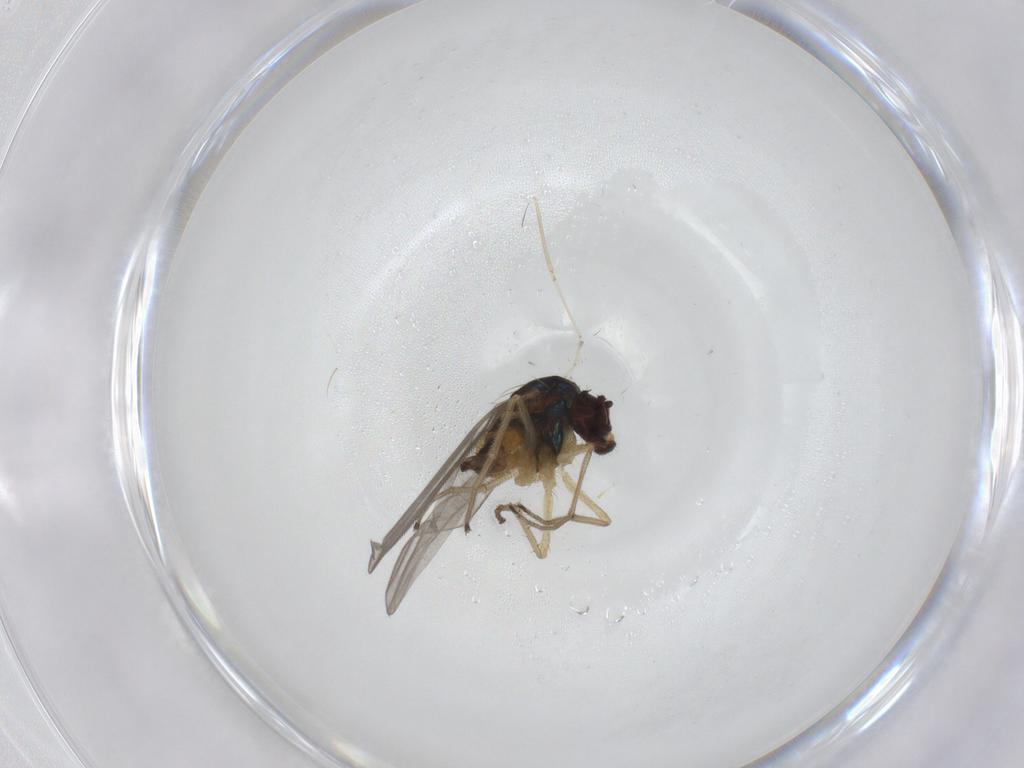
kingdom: Animalia
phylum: Arthropoda
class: Insecta
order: Diptera
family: Dolichopodidae
